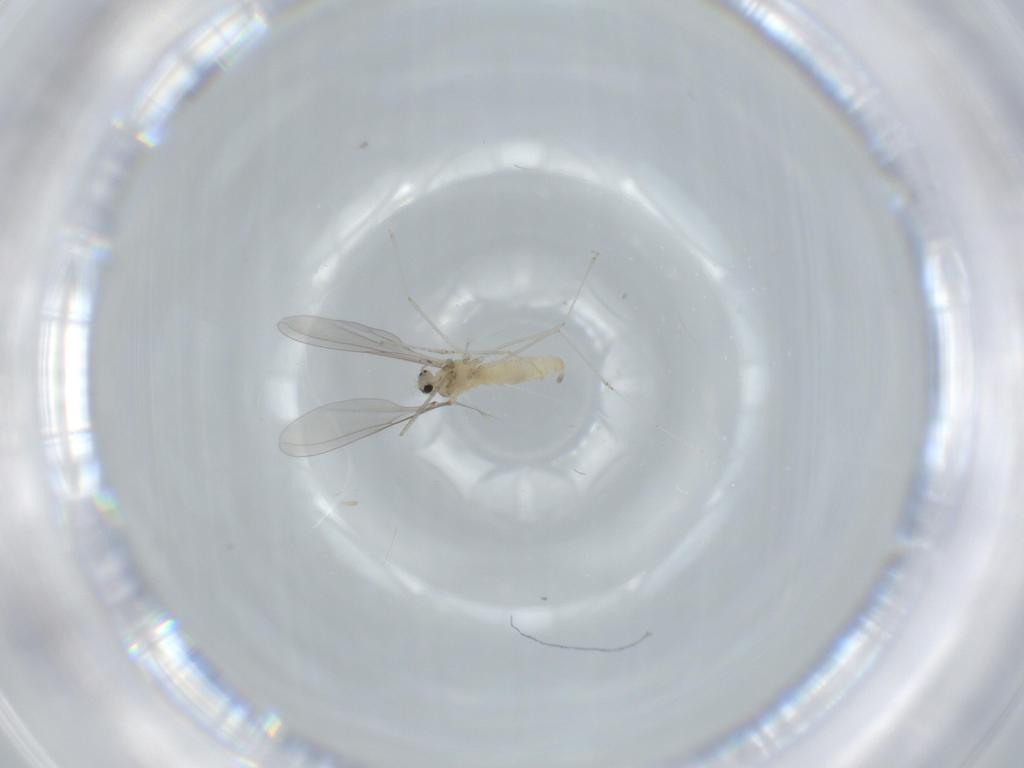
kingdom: Animalia
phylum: Arthropoda
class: Insecta
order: Diptera
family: Cecidomyiidae
